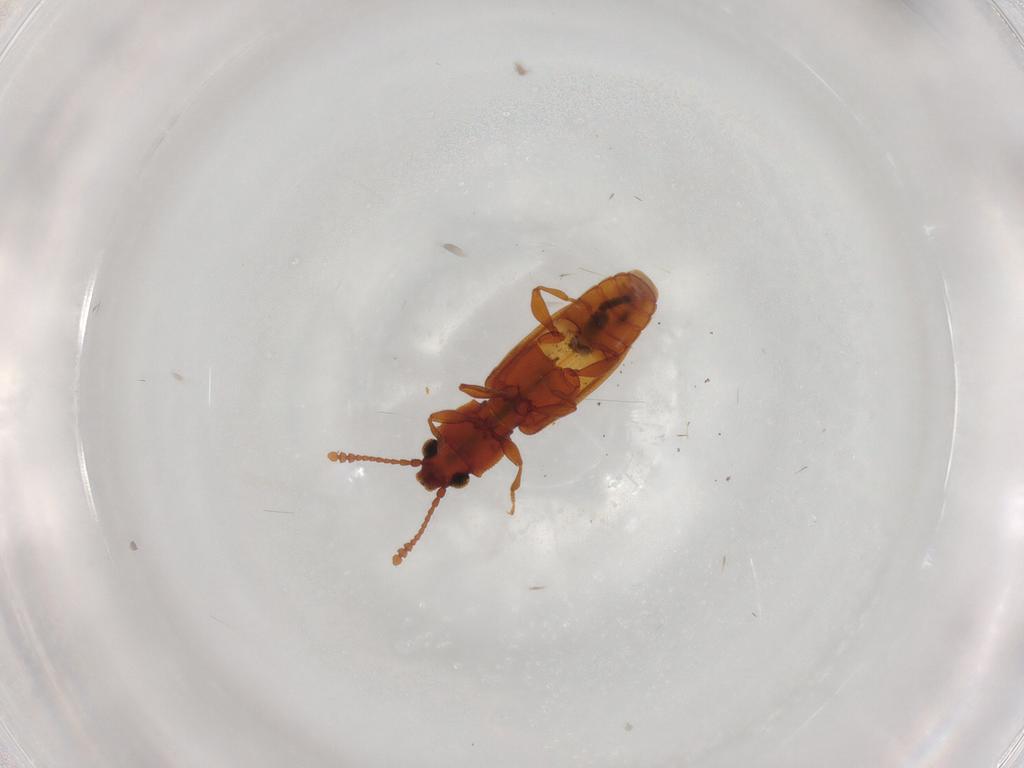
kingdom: Animalia
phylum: Arthropoda
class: Insecta
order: Coleoptera
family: Silvanidae
